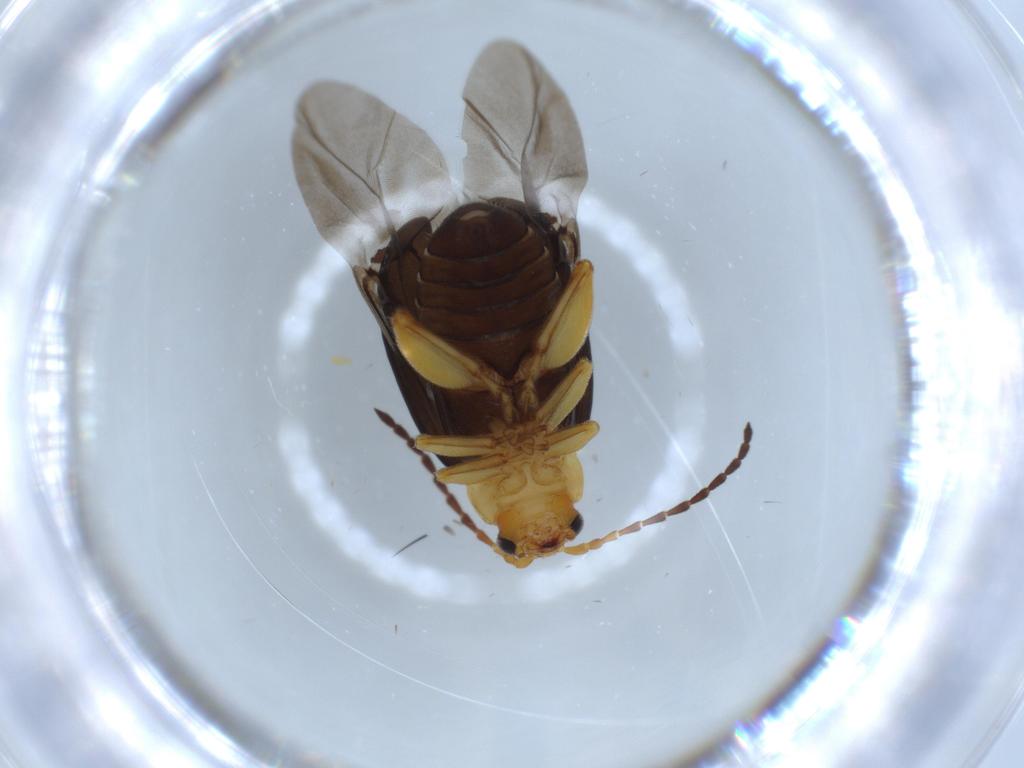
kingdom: Animalia
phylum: Arthropoda
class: Insecta
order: Coleoptera
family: Chrysomelidae
